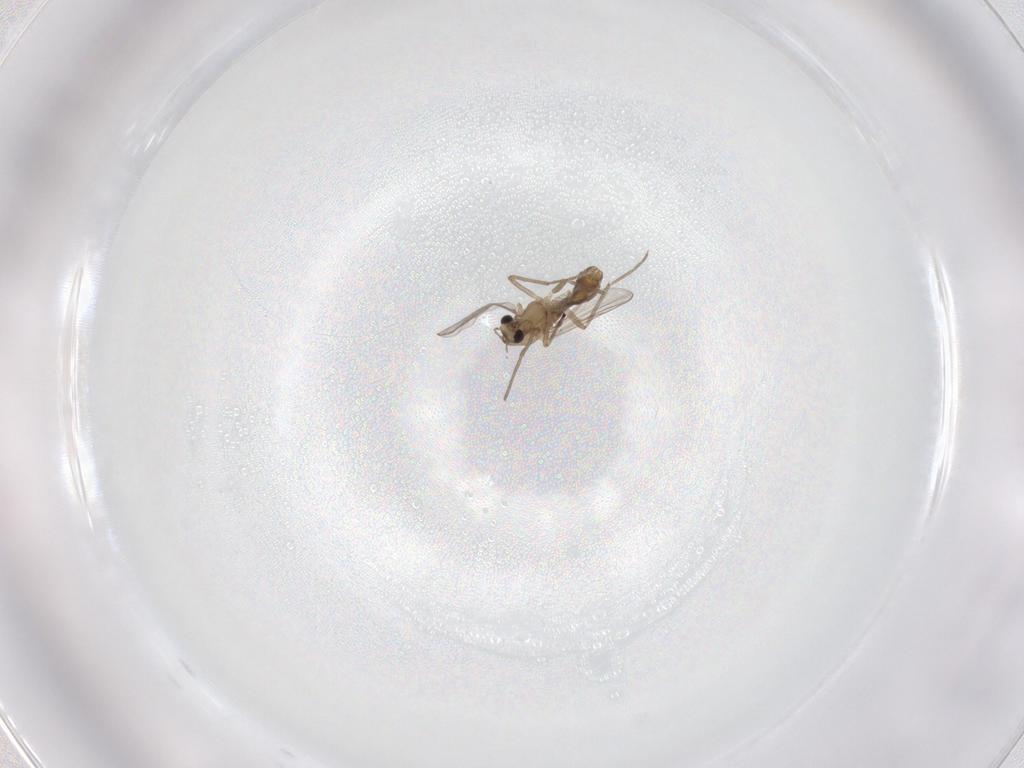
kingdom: Animalia
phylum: Arthropoda
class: Insecta
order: Diptera
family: Chironomidae
